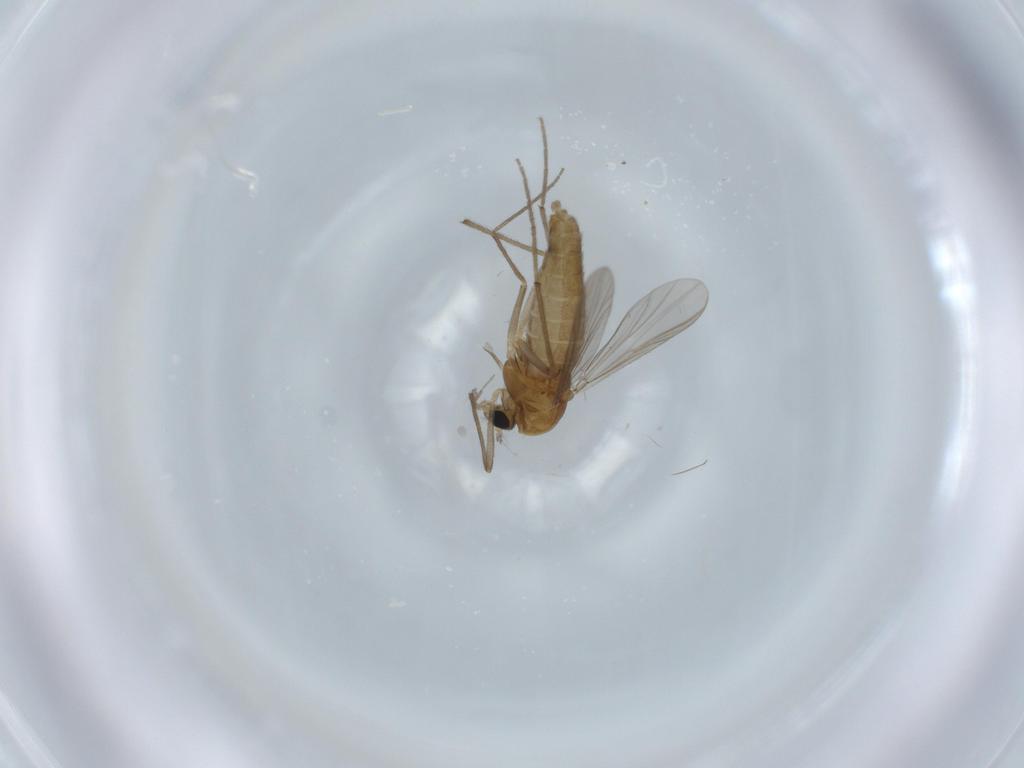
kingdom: Animalia
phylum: Arthropoda
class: Insecta
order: Diptera
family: Chironomidae
